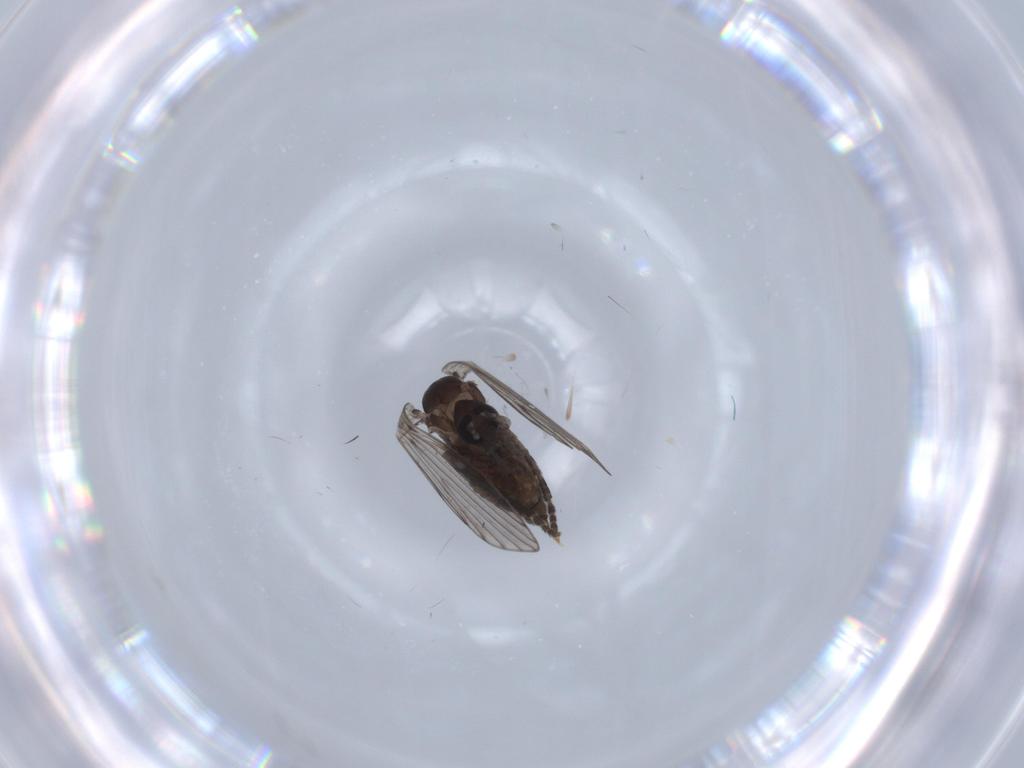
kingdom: Animalia
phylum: Arthropoda
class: Insecta
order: Diptera
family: Psychodidae
